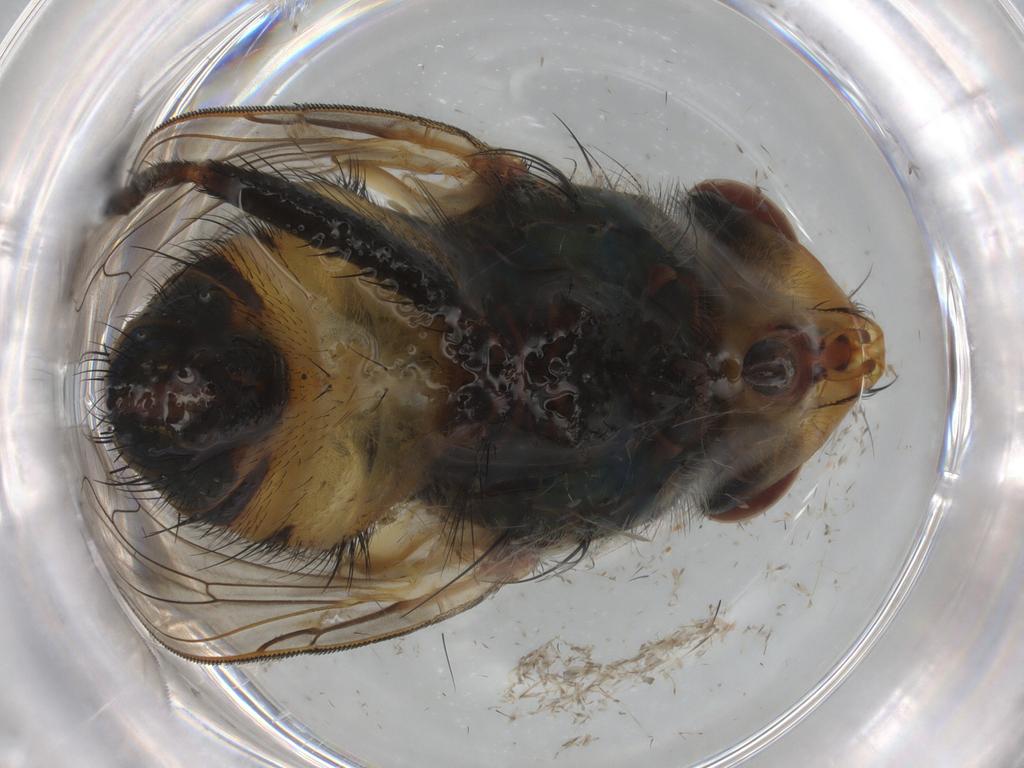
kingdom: Animalia
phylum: Arthropoda
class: Insecta
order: Diptera
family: Calliphoridae
